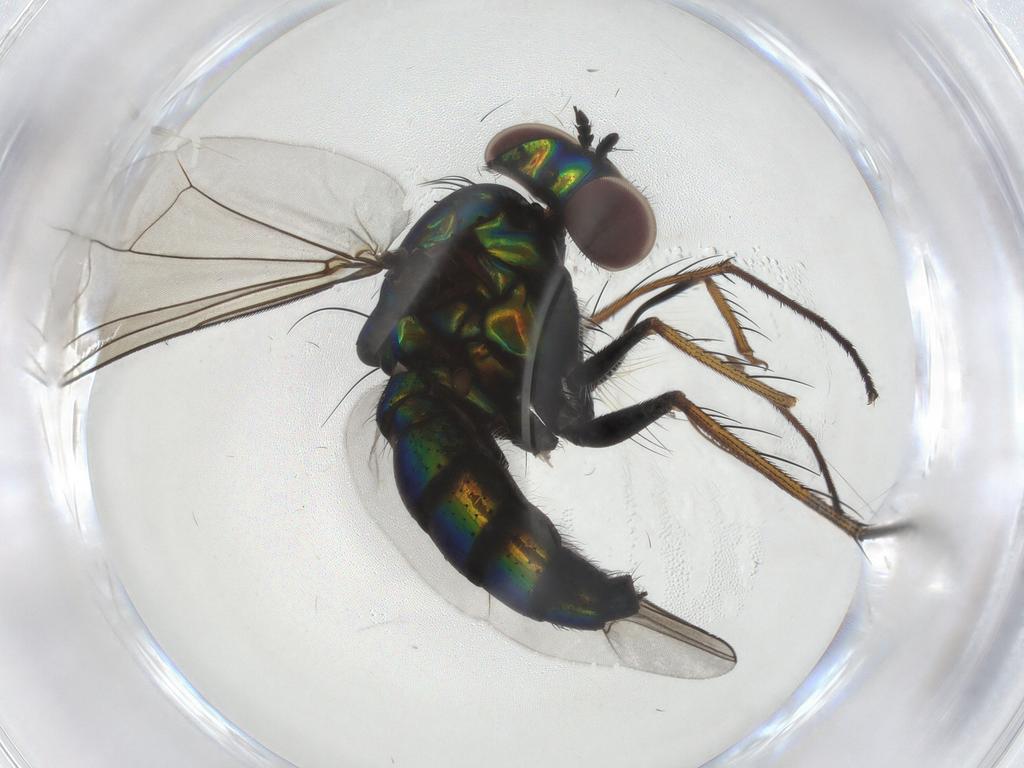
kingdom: Animalia
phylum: Arthropoda
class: Insecta
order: Diptera
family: Dolichopodidae
